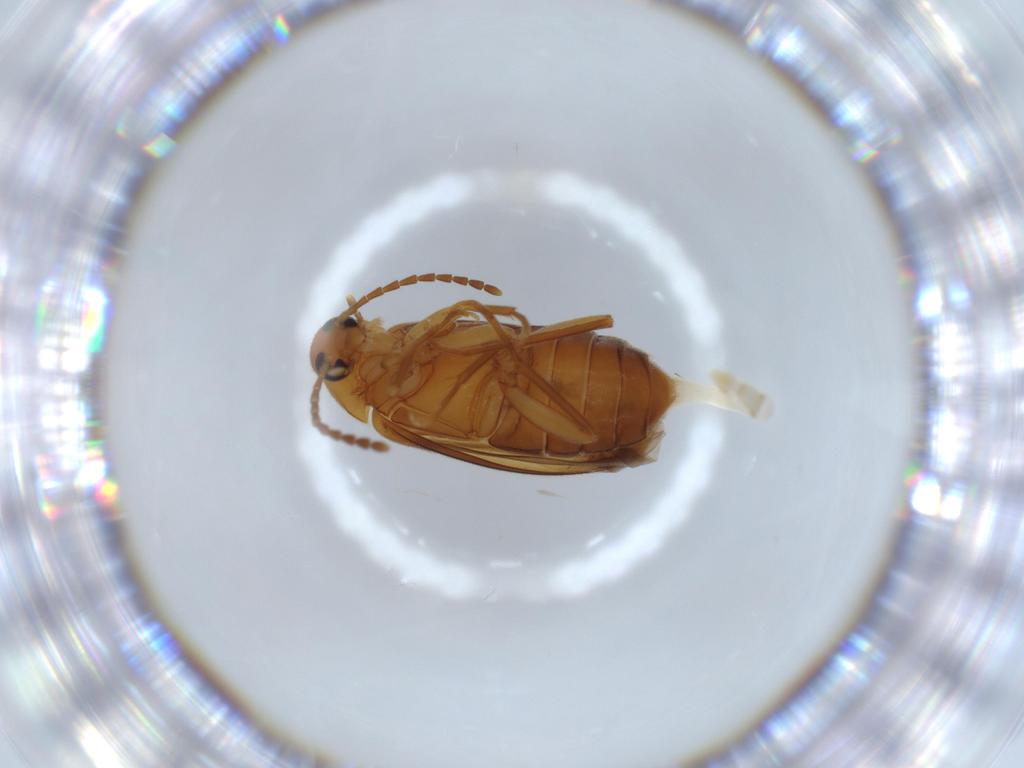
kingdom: Animalia
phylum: Arthropoda
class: Insecta
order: Coleoptera
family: Scraptiidae
